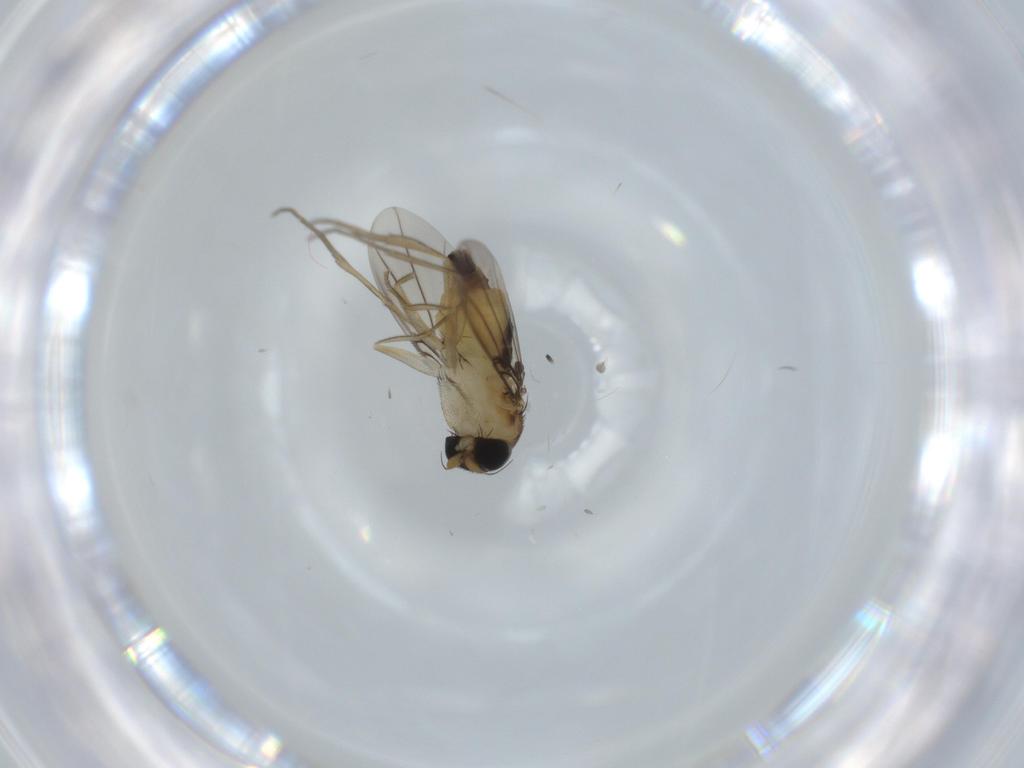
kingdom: Animalia
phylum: Arthropoda
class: Insecta
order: Diptera
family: Phoridae
